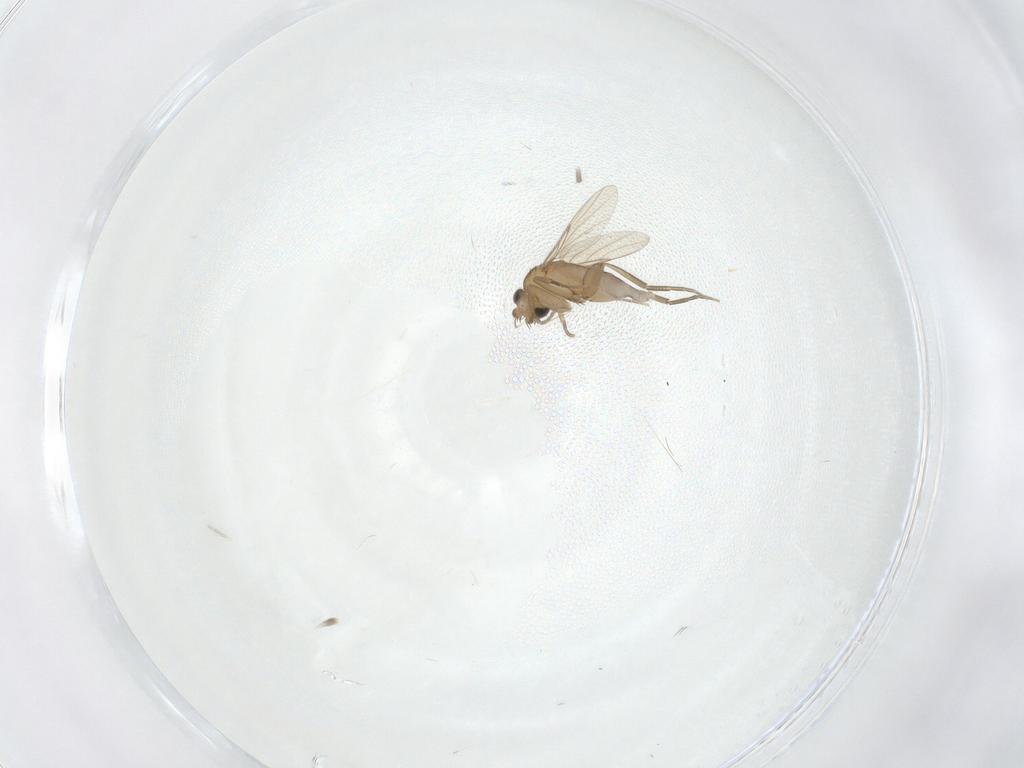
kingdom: Animalia
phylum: Arthropoda
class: Insecta
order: Diptera
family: Phoridae
